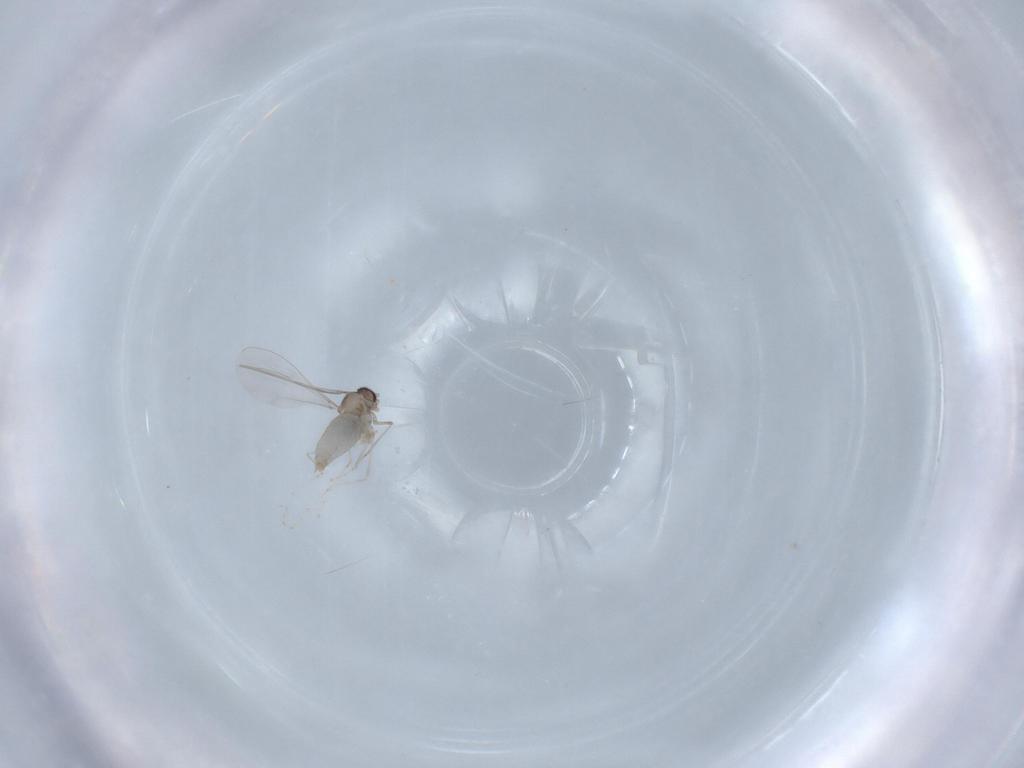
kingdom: Animalia
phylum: Arthropoda
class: Insecta
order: Diptera
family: Cecidomyiidae
